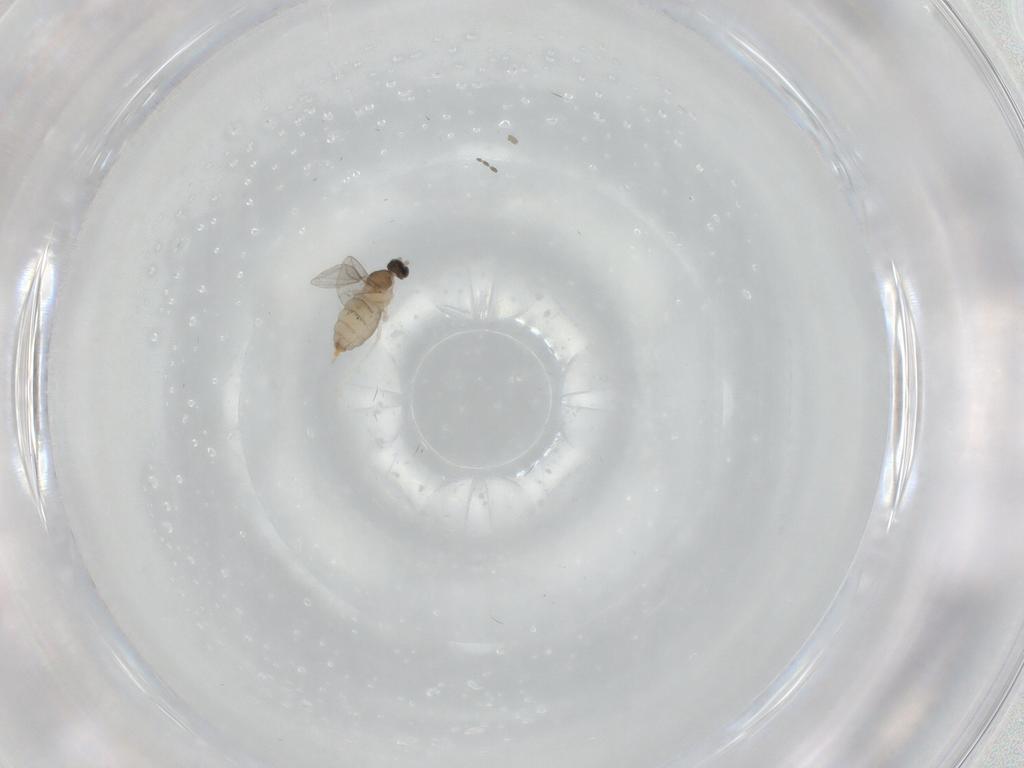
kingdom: Animalia
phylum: Arthropoda
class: Insecta
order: Diptera
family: Cecidomyiidae
